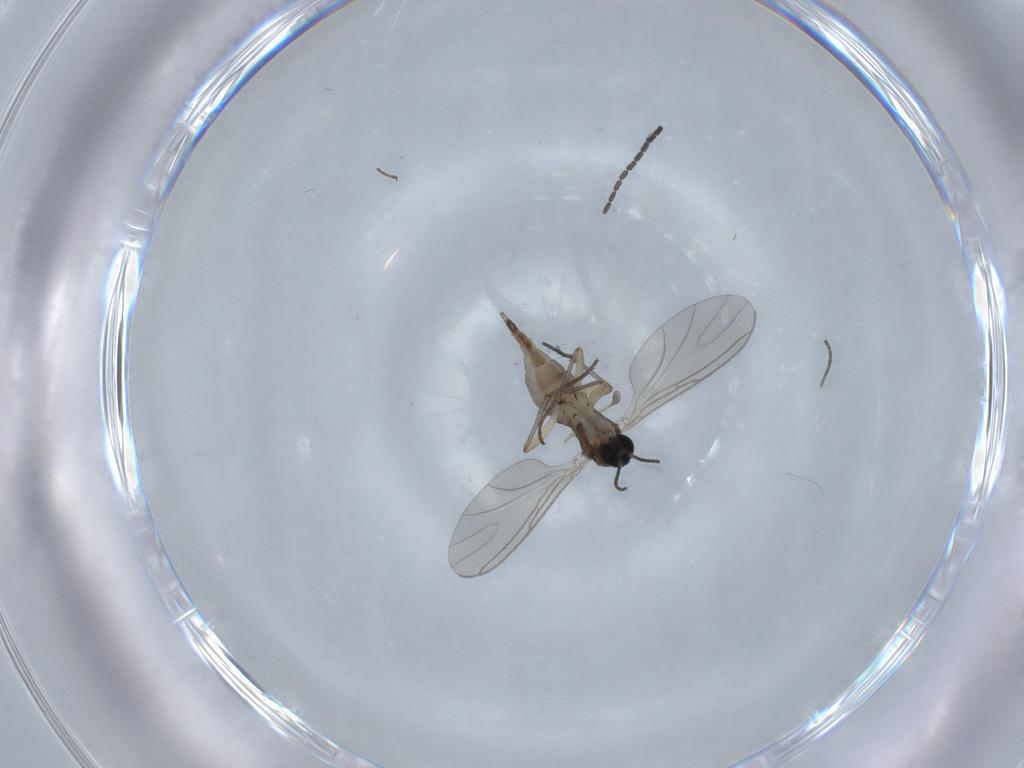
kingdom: Animalia
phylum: Arthropoda
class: Insecta
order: Diptera
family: Sciaridae
